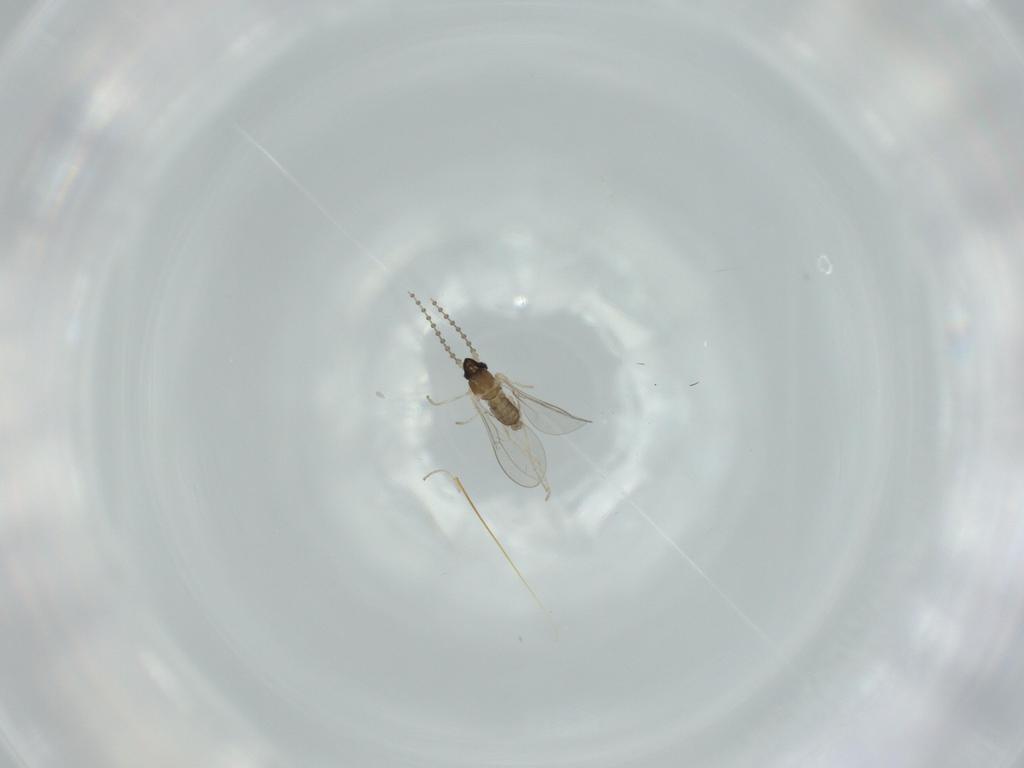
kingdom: Animalia
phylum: Arthropoda
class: Insecta
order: Diptera
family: Cecidomyiidae
